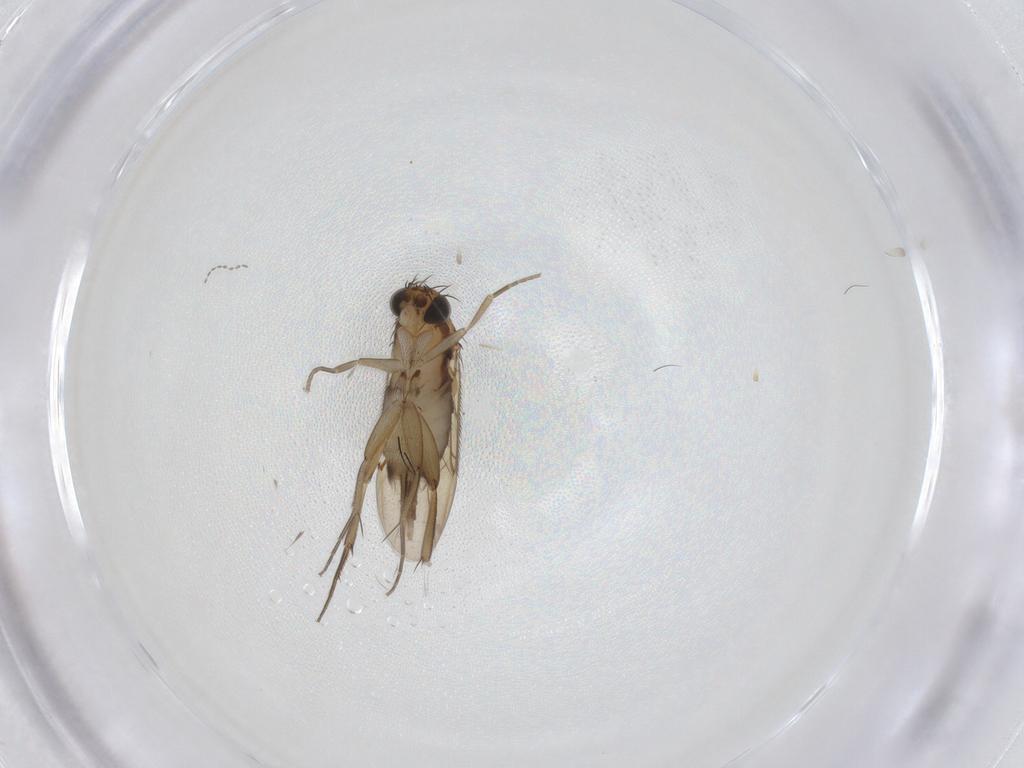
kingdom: Animalia
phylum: Arthropoda
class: Insecta
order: Diptera
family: Phoridae
